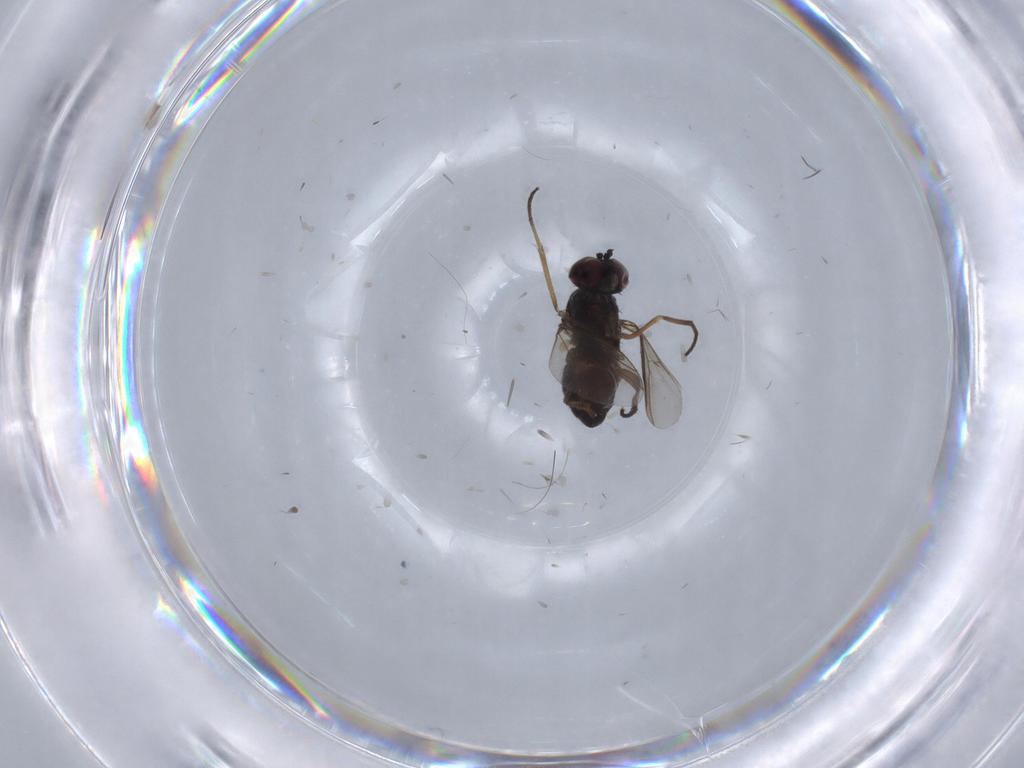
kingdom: Animalia
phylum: Arthropoda
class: Insecta
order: Diptera
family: Dolichopodidae
